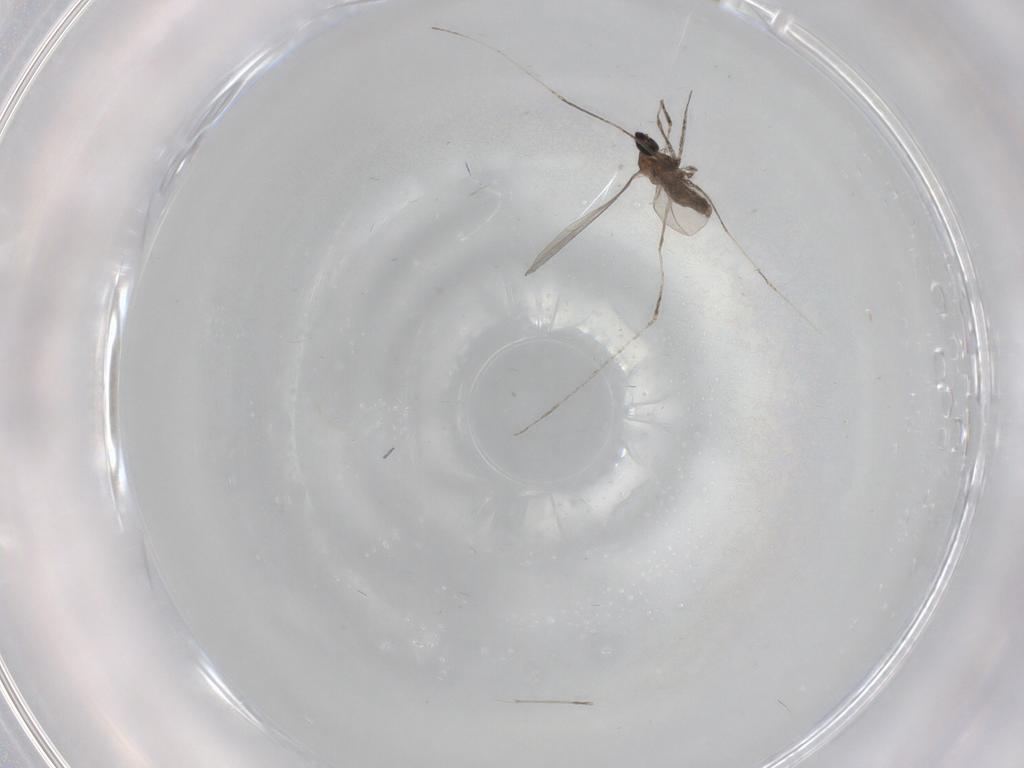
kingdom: Animalia
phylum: Arthropoda
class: Insecta
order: Diptera
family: Cecidomyiidae
